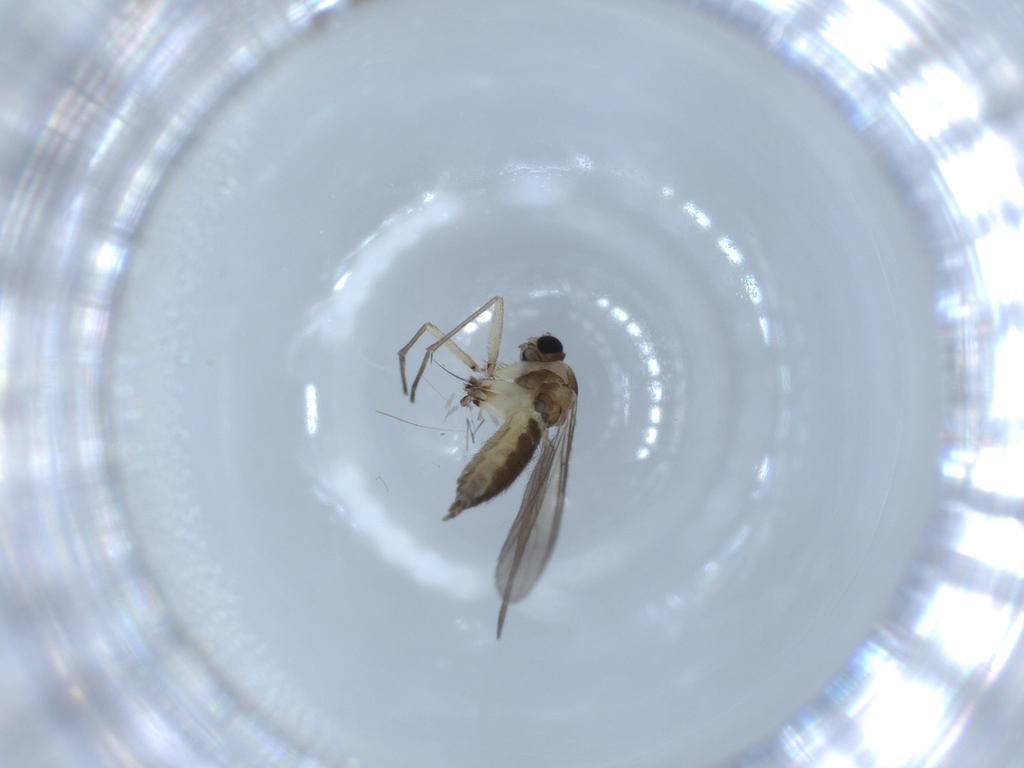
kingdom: Animalia
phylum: Arthropoda
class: Insecta
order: Diptera
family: Sciaridae
